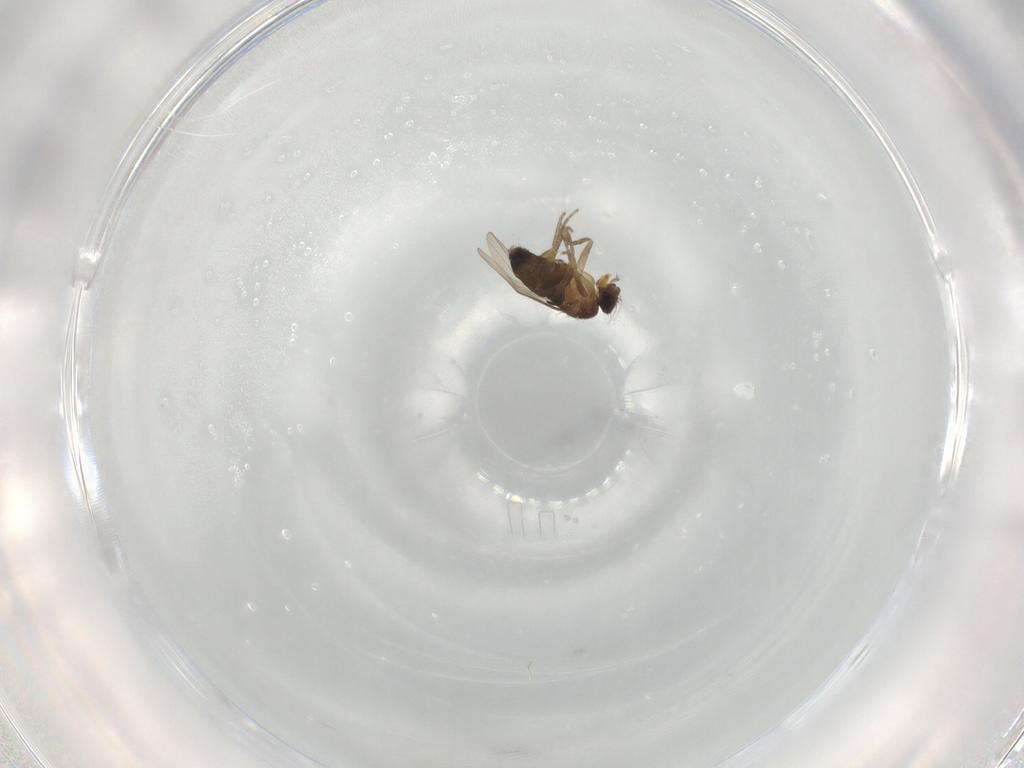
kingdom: Animalia
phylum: Arthropoda
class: Insecta
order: Diptera
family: Phoridae
